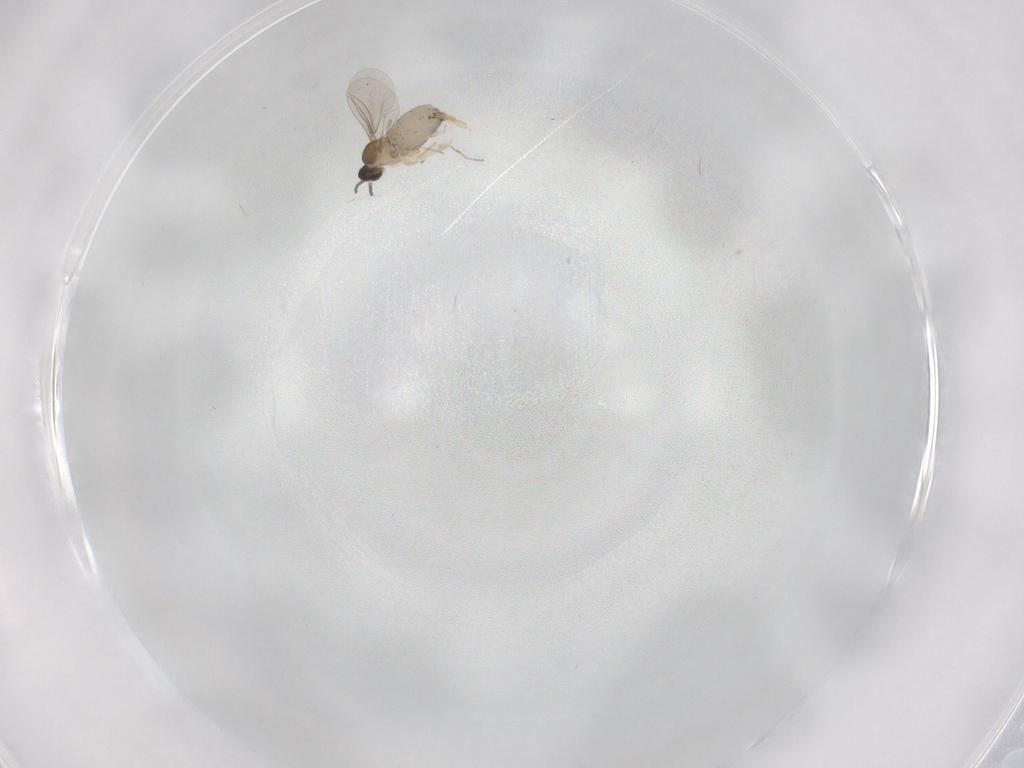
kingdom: Animalia
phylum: Arthropoda
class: Insecta
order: Diptera
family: Cecidomyiidae
